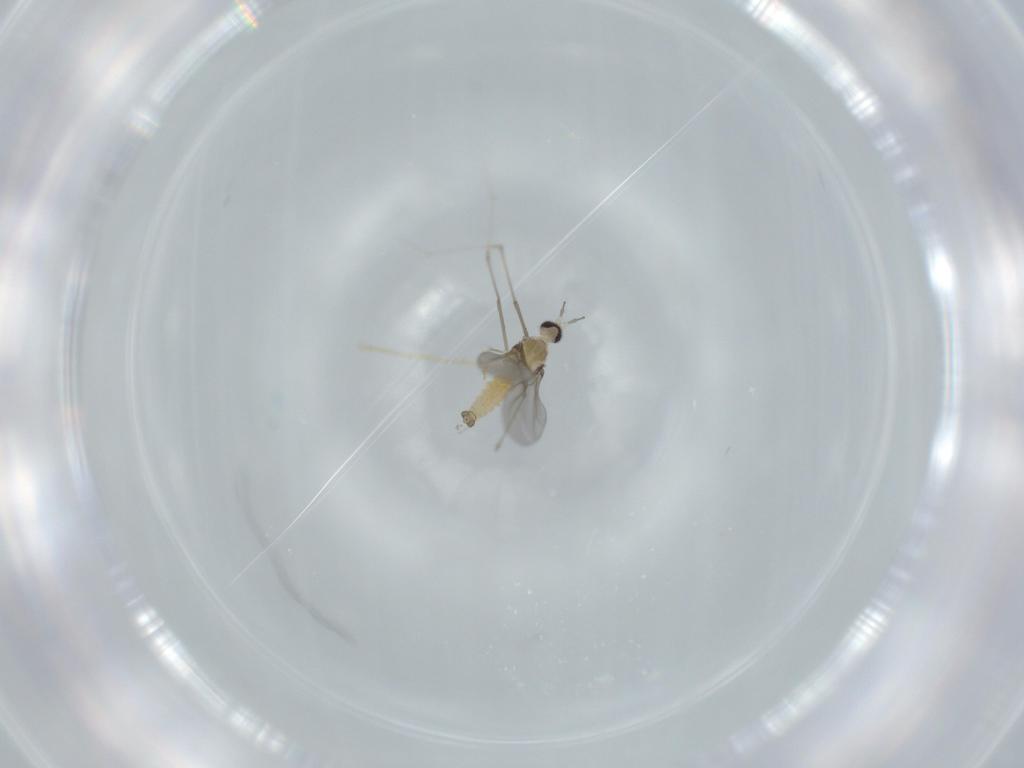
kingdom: Animalia
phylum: Arthropoda
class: Insecta
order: Diptera
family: Cecidomyiidae
